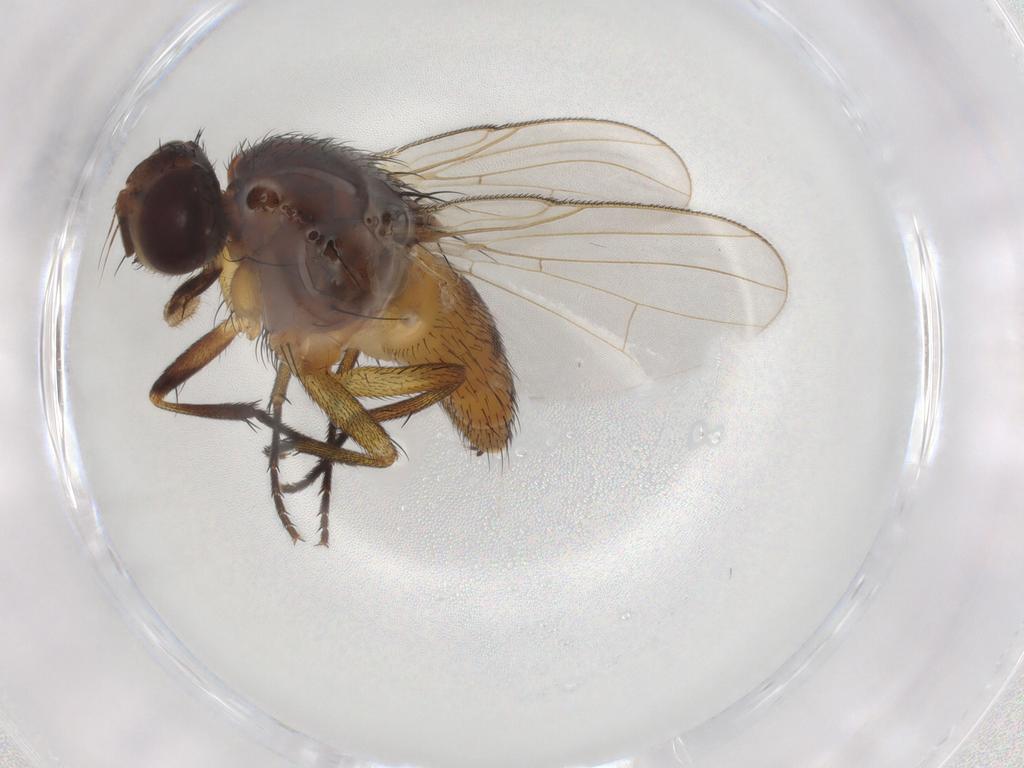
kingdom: Animalia
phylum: Arthropoda
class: Insecta
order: Diptera
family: Muscidae
